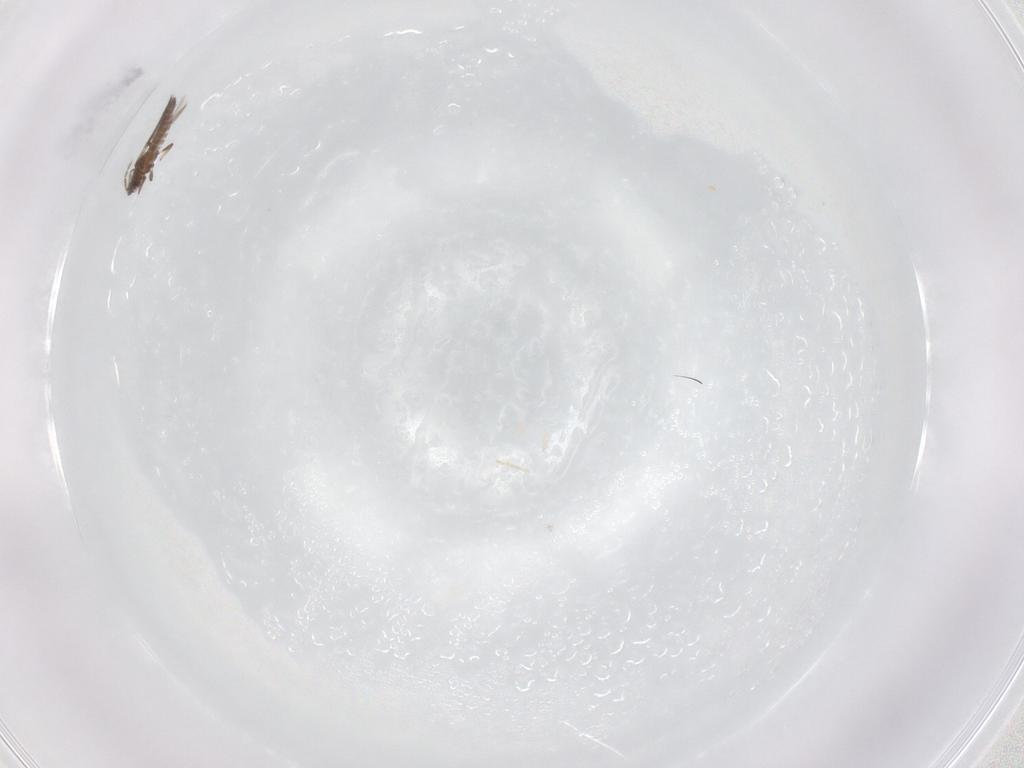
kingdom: Animalia
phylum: Arthropoda
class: Insecta
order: Thysanoptera
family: Thripidae
